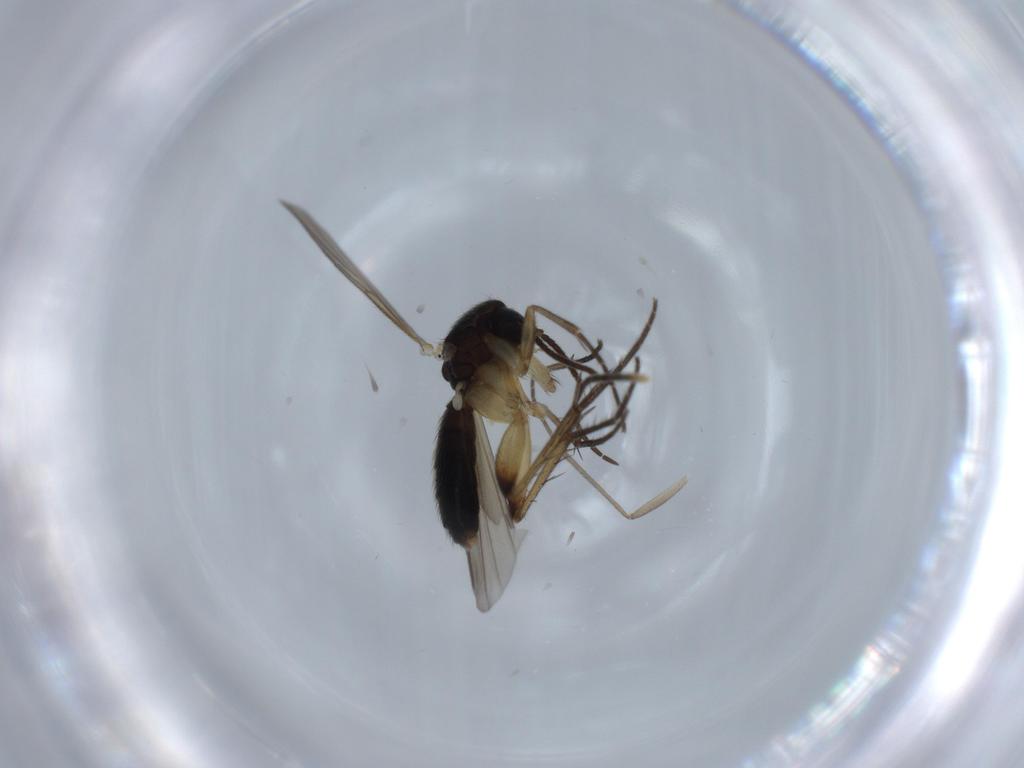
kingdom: Animalia
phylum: Arthropoda
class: Insecta
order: Diptera
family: Mycetophilidae
